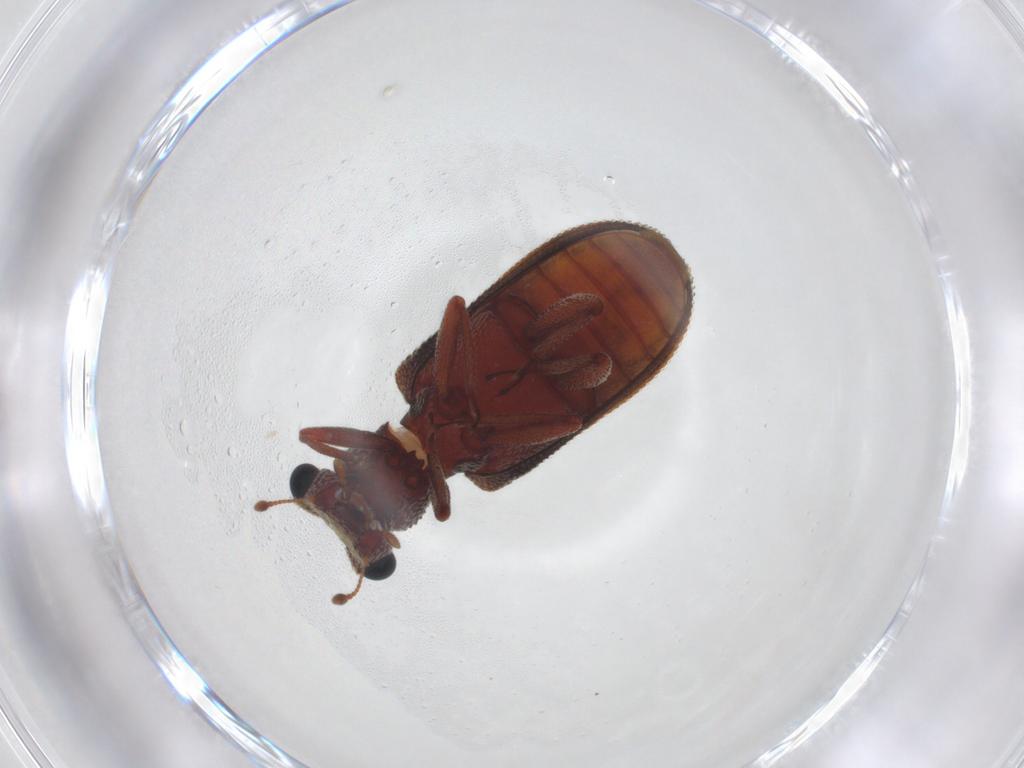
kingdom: Animalia
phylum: Arthropoda
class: Insecta
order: Coleoptera
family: Zopheridae
